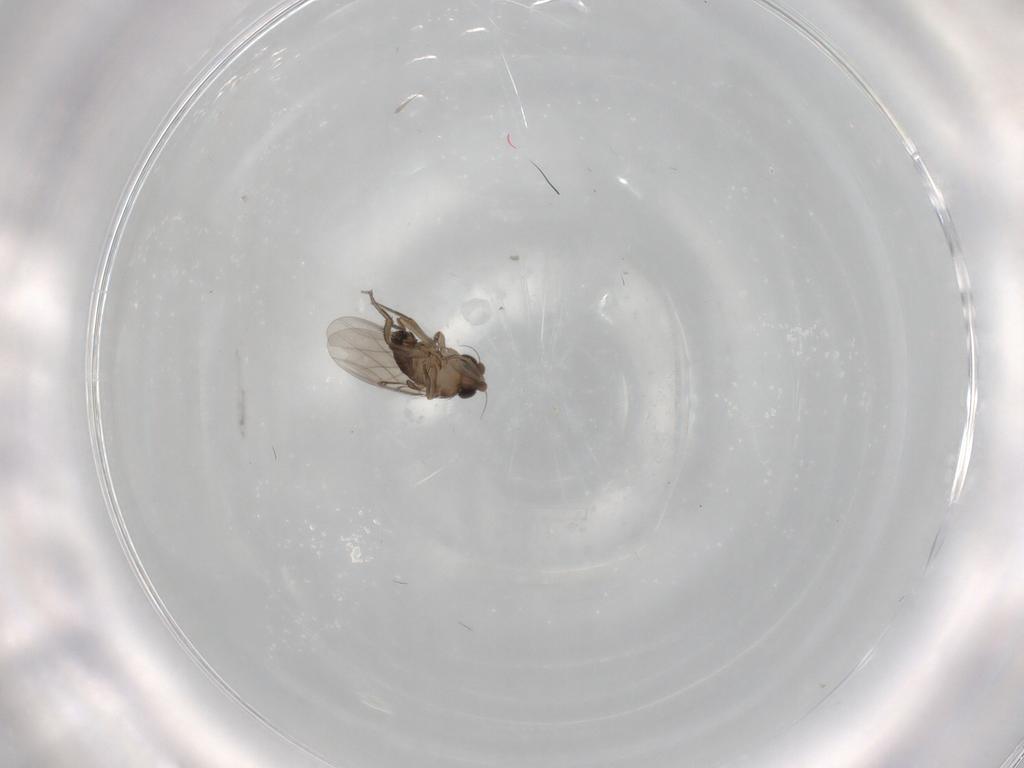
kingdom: Animalia
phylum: Arthropoda
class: Insecta
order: Diptera
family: Phoridae
